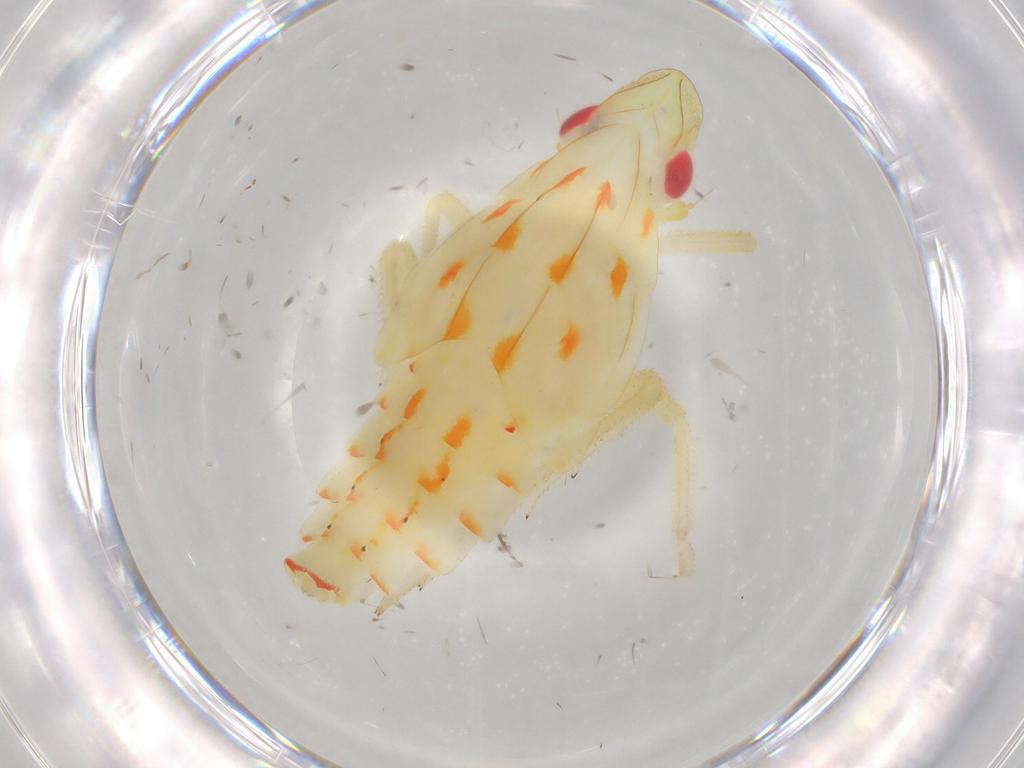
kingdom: Animalia
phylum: Arthropoda
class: Insecta
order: Hemiptera
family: Tropiduchidae
